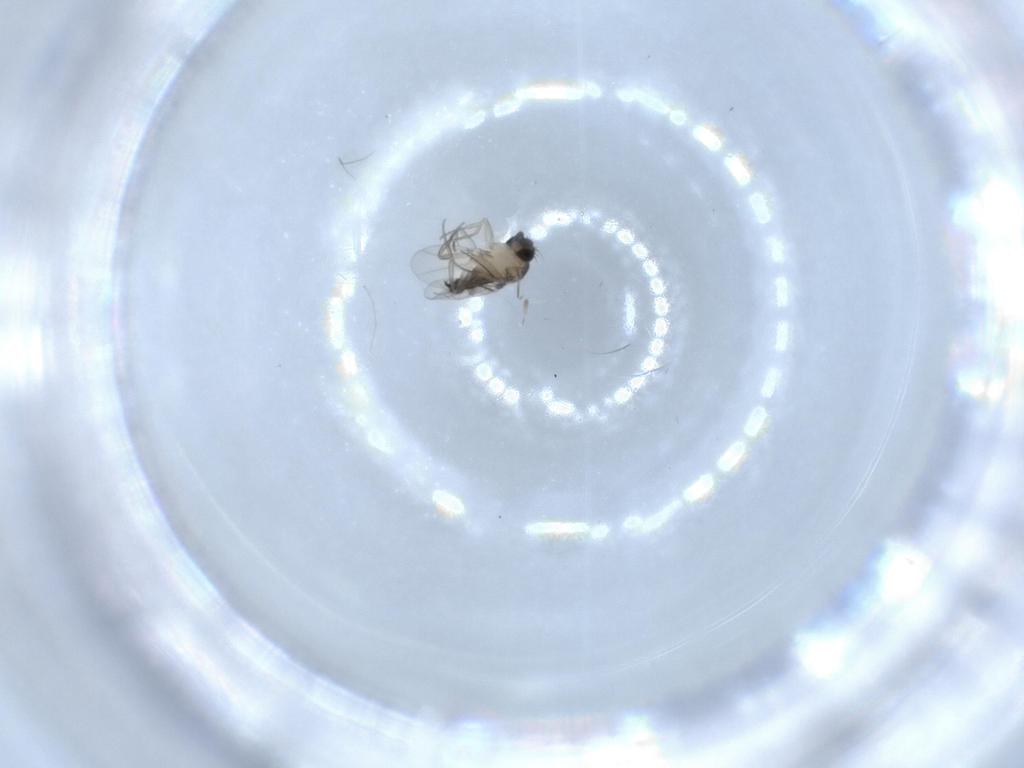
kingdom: Animalia
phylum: Arthropoda
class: Insecta
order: Diptera
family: Phoridae
